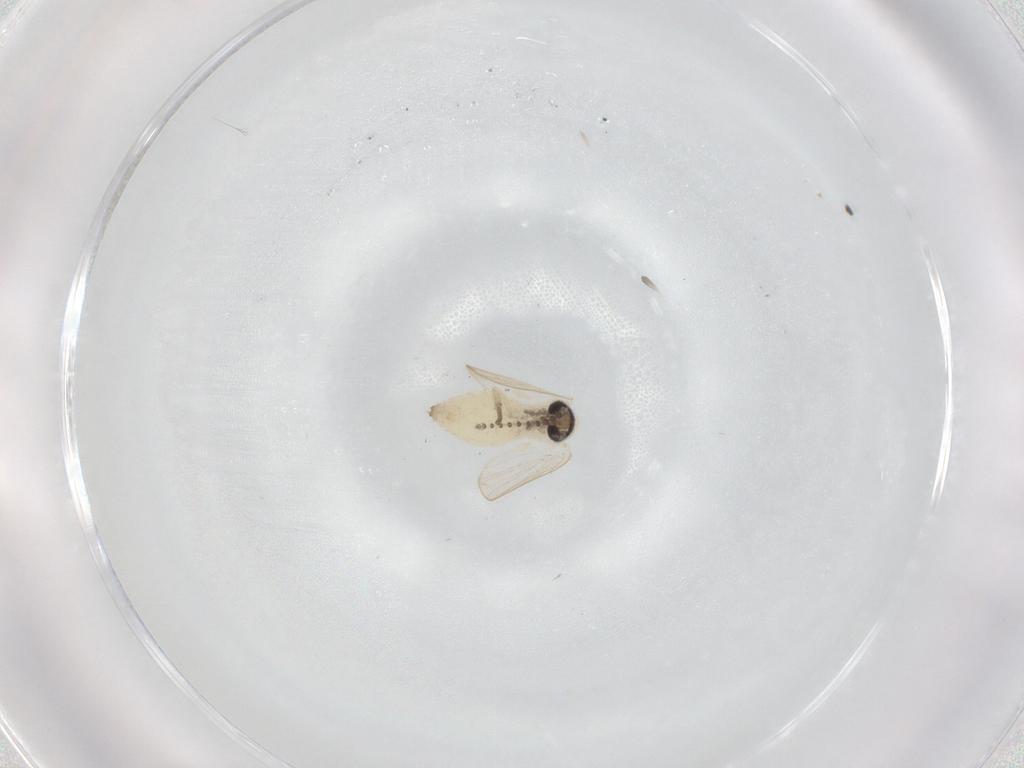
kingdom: Animalia
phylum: Arthropoda
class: Insecta
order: Diptera
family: Psychodidae
